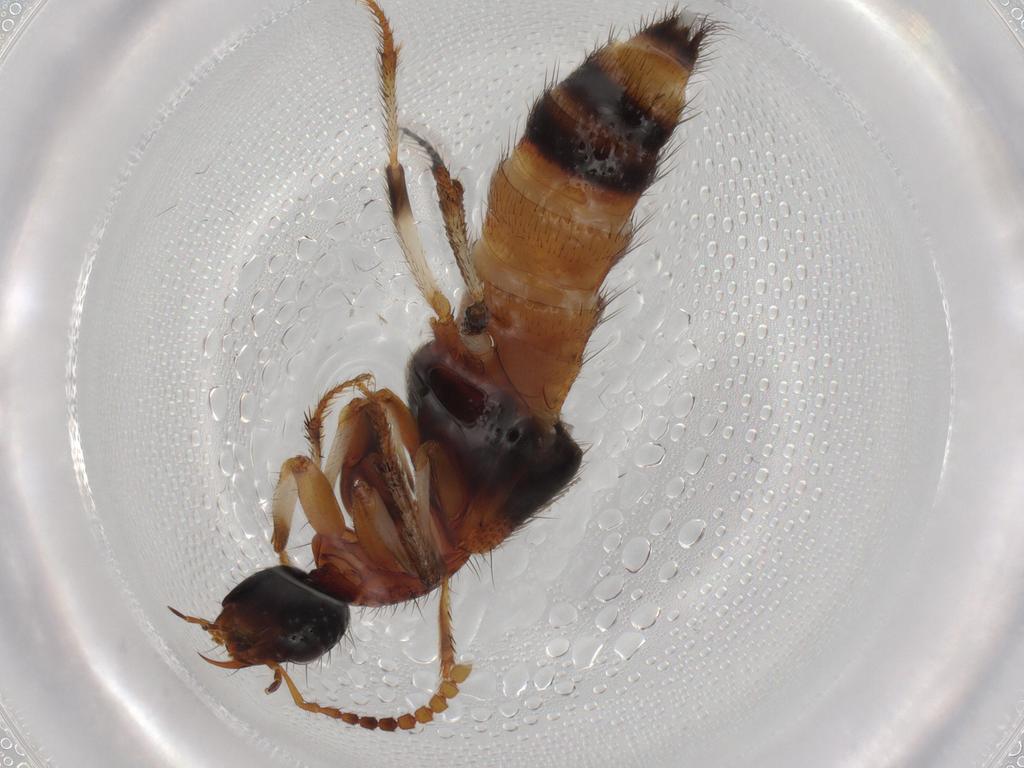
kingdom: Animalia
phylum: Arthropoda
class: Insecta
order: Coleoptera
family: Staphylinidae
